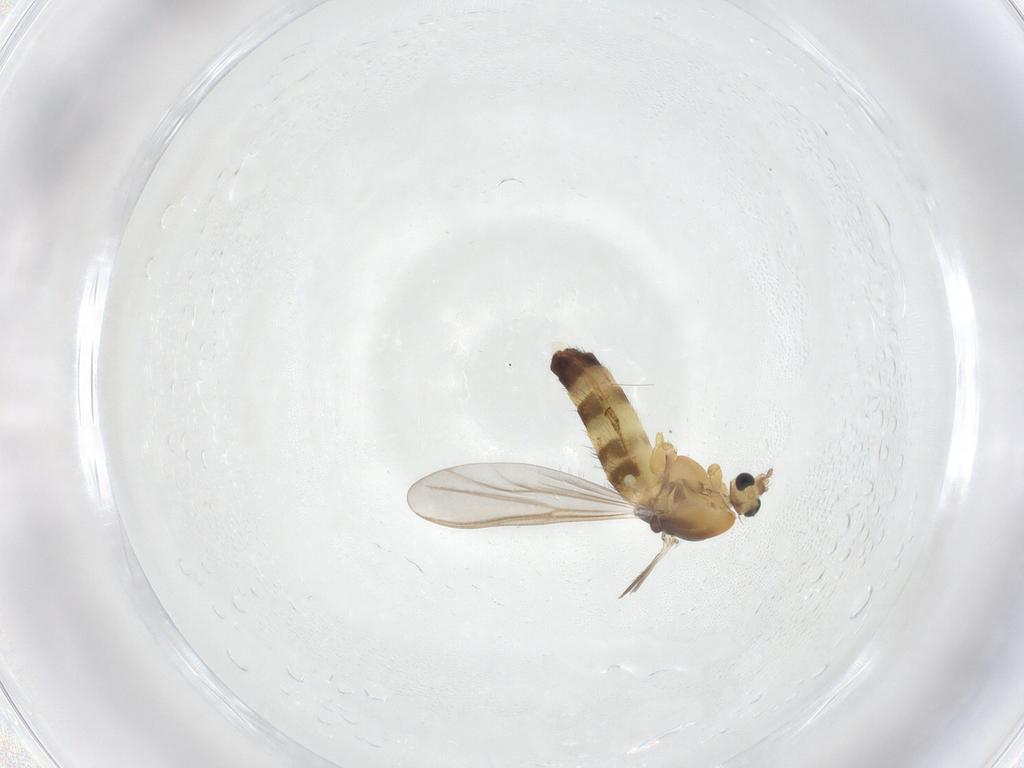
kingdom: Animalia
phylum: Arthropoda
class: Insecta
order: Diptera
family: Chironomidae
